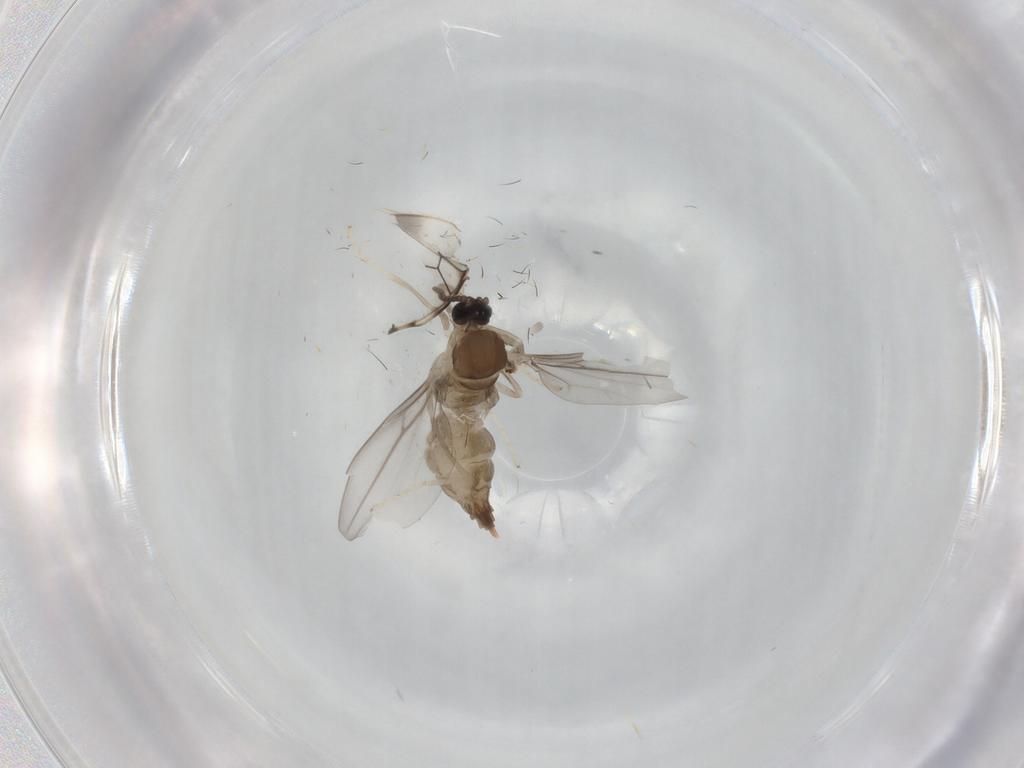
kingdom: Animalia
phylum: Arthropoda
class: Insecta
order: Diptera
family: Cecidomyiidae
